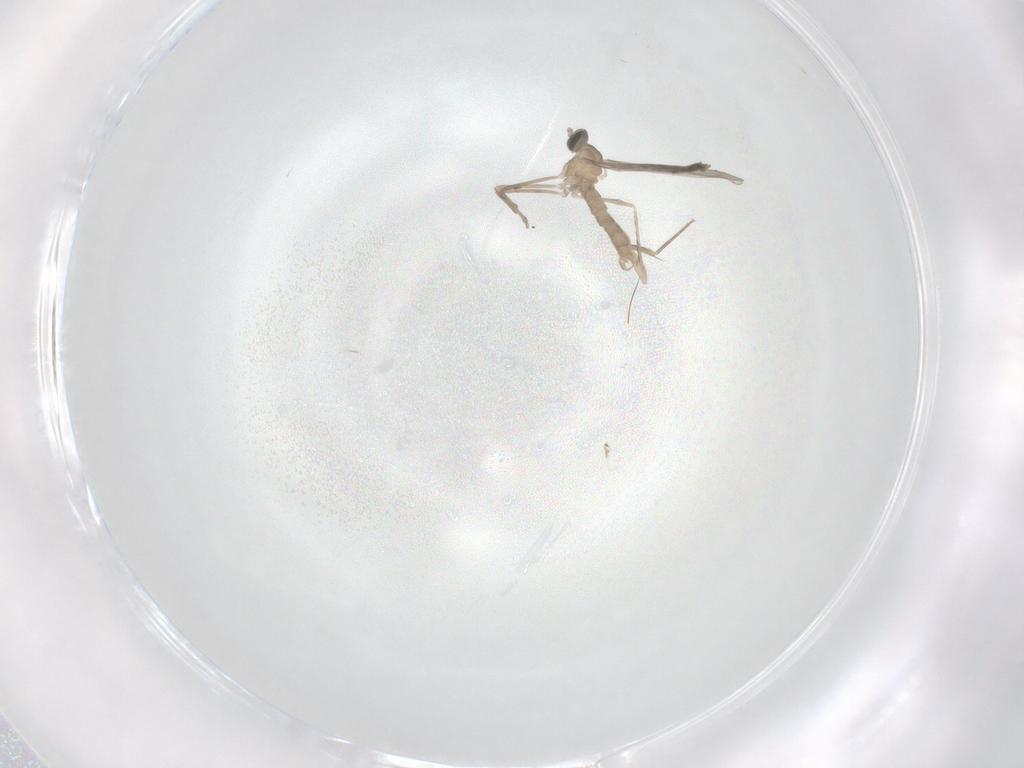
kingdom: Animalia
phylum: Arthropoda
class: Insecta
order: Diptera
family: Cecidomyiidae
